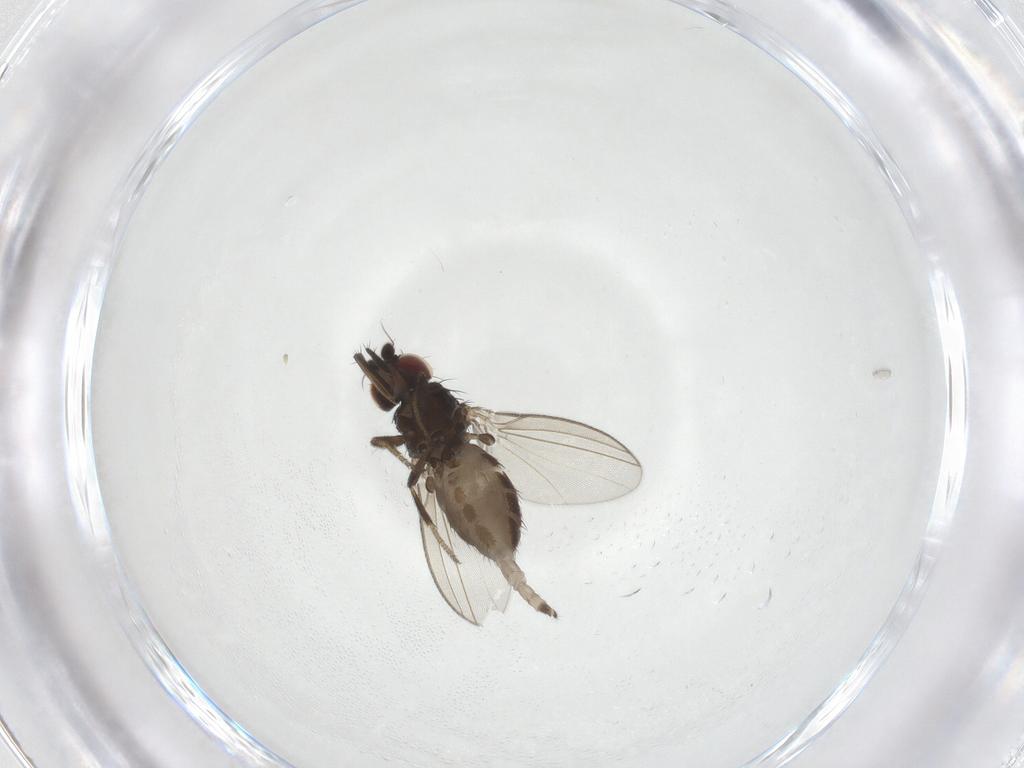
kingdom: Animalia
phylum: Arthropoda
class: Insecta
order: Diptera
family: Milichiidae
